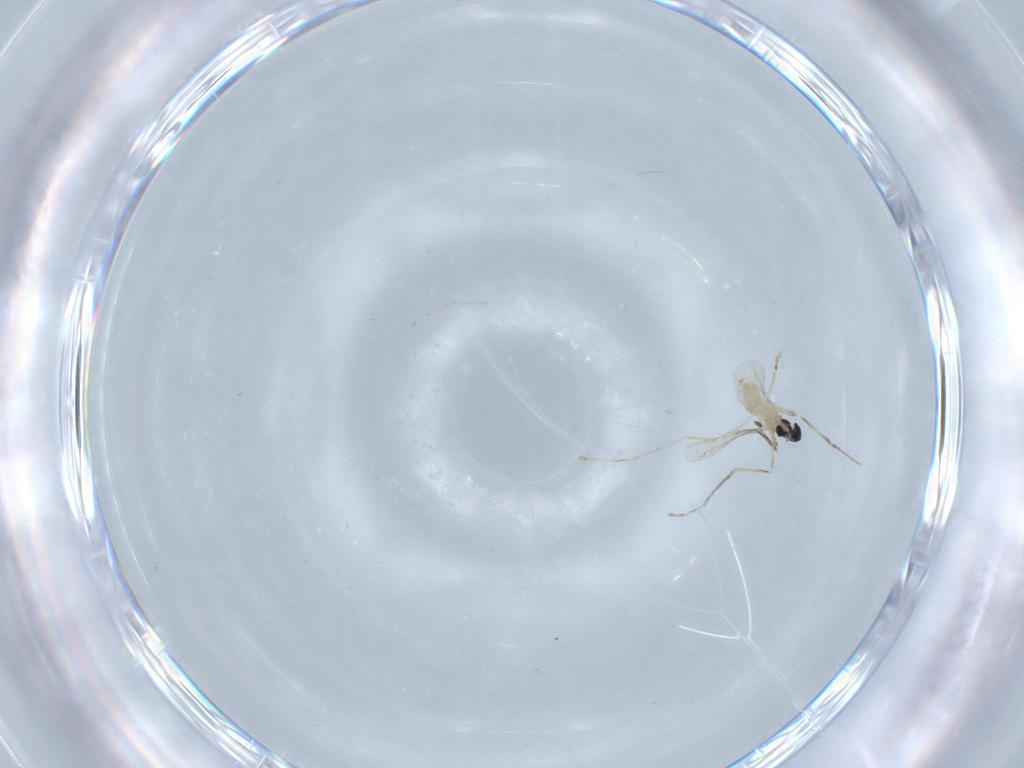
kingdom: Animalia
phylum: Arthropoda
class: Insecta
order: Diptera
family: Cecidomyiidae
